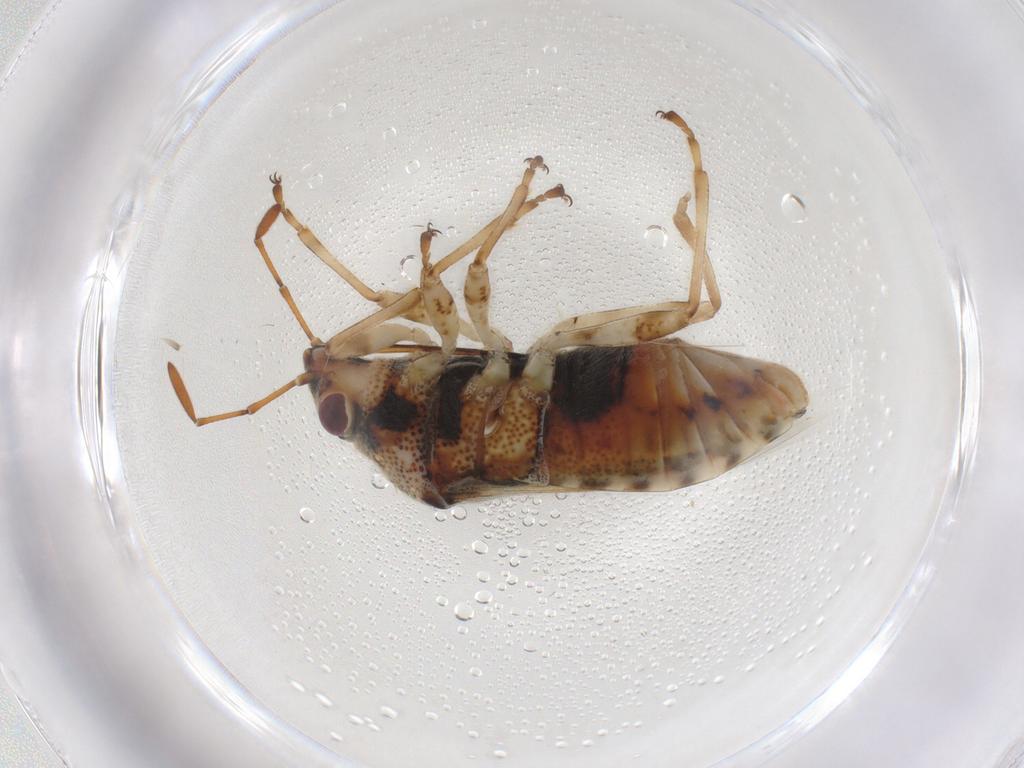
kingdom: Animalia
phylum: Arthropoda
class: Insecta
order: Hemiptera
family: Lygaeidae
